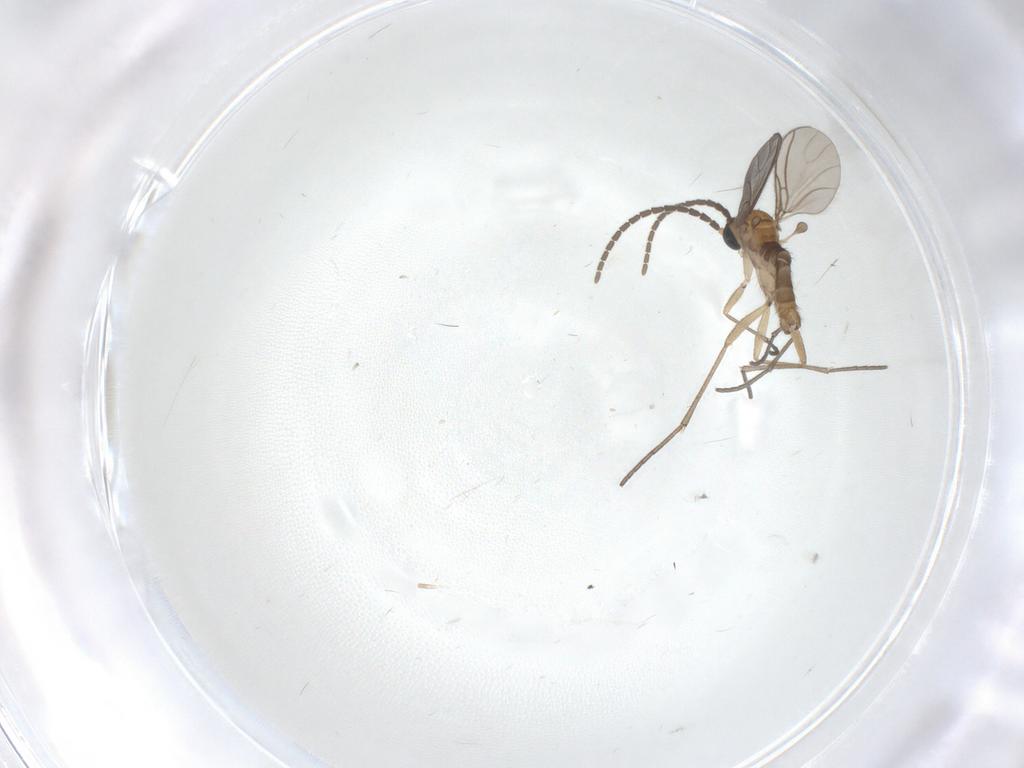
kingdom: Animalia
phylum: Arthropoda
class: Insecta
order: Diptera
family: Sciaridae
